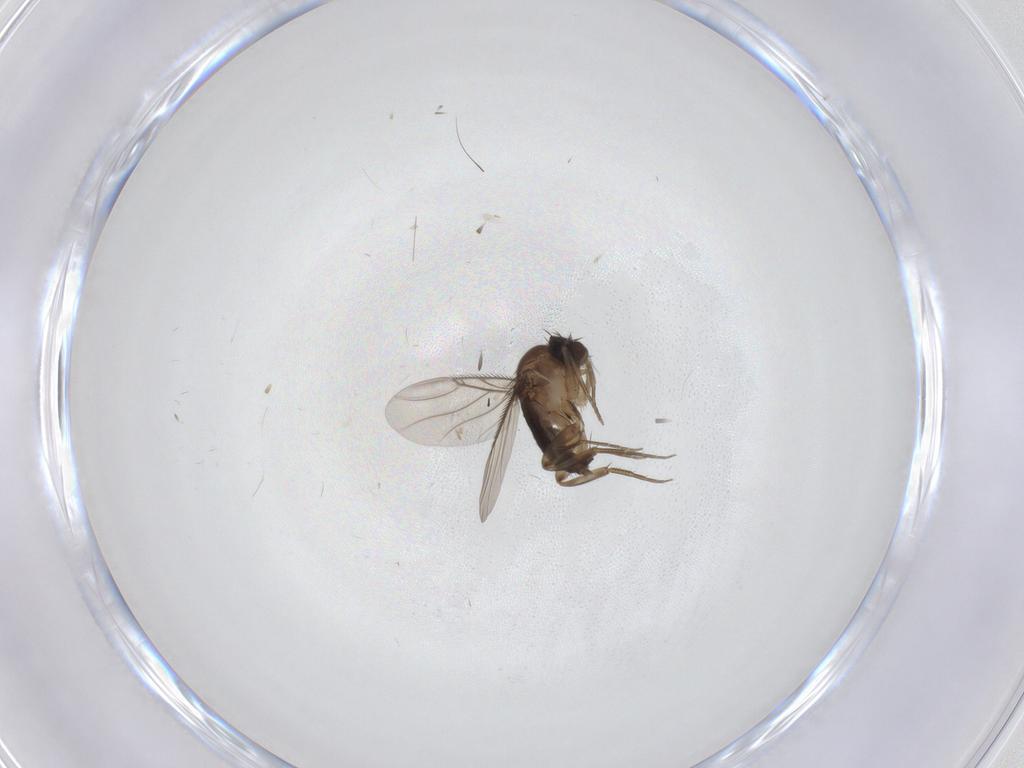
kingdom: Animalia
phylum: Arthropoda
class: Insecta
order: Diptera
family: Phoridae
